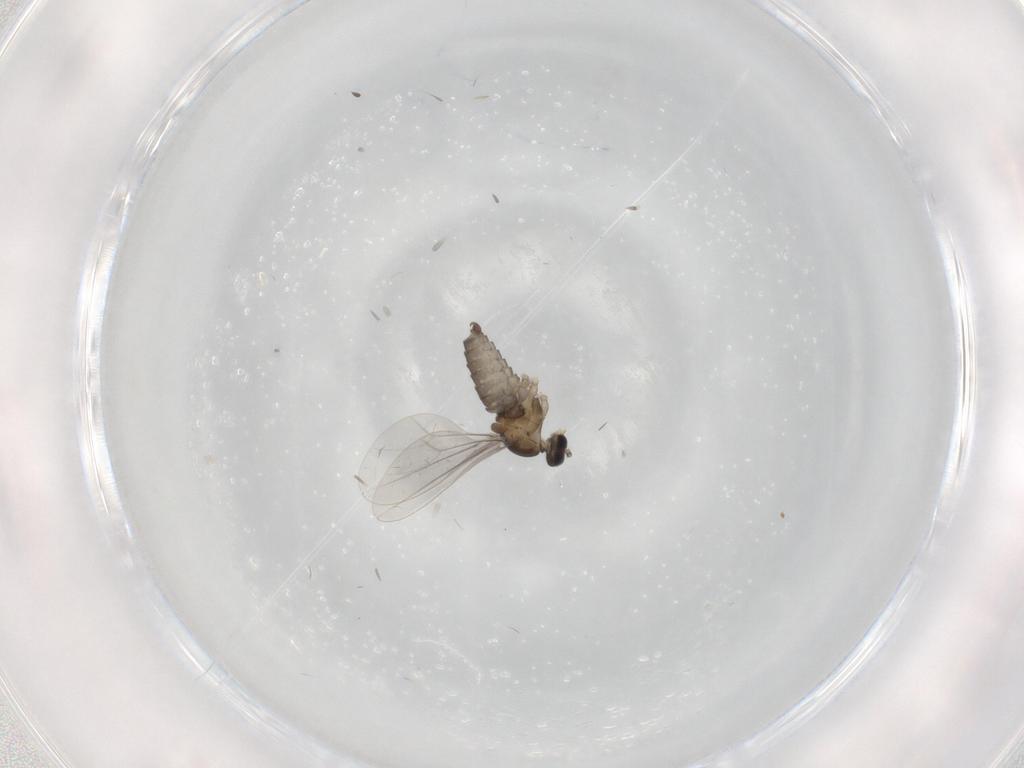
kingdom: Animalia
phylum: Arthropoda
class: Insecta
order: Diptera
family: Cecidomyiidae
